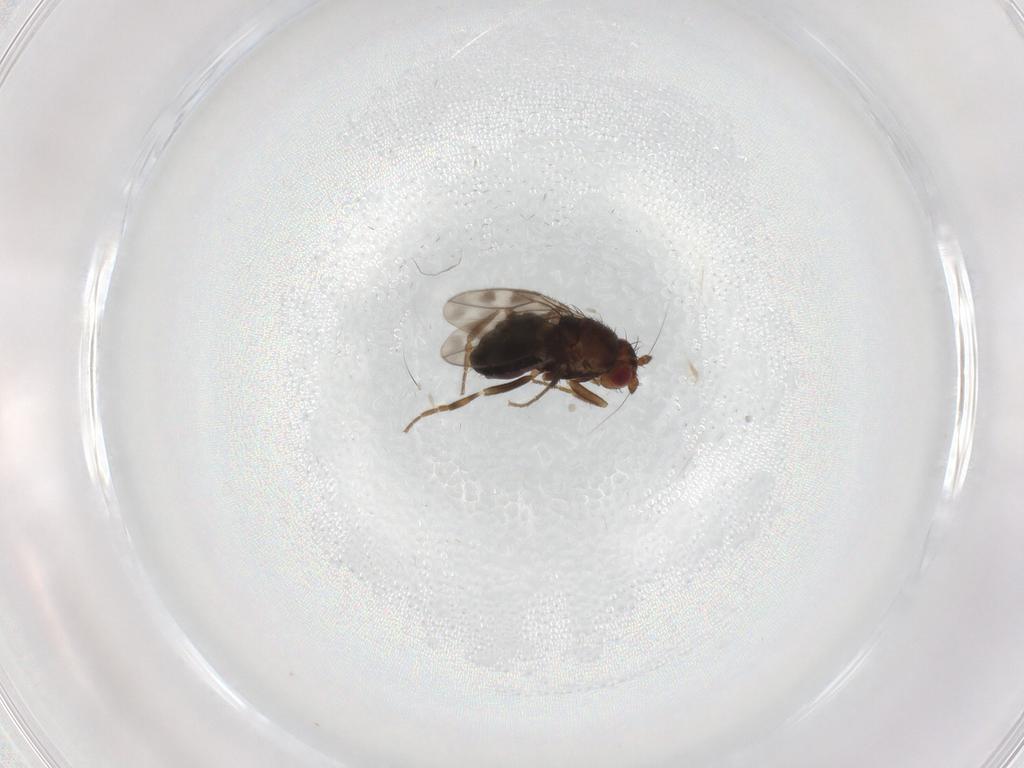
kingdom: Animalia
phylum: Arthropoda
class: Insecta
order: Diptera
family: Sphaeroceridae
